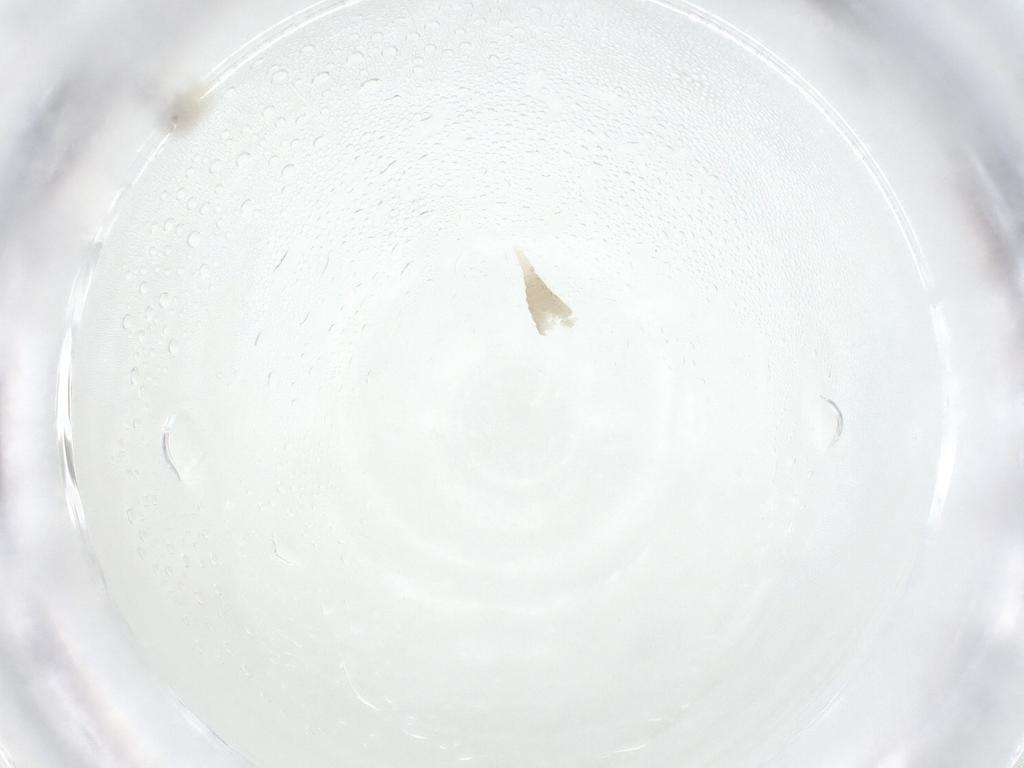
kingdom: Animalia
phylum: Arthropoda
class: Insecta
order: Diptera
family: Cecidomyiidae
